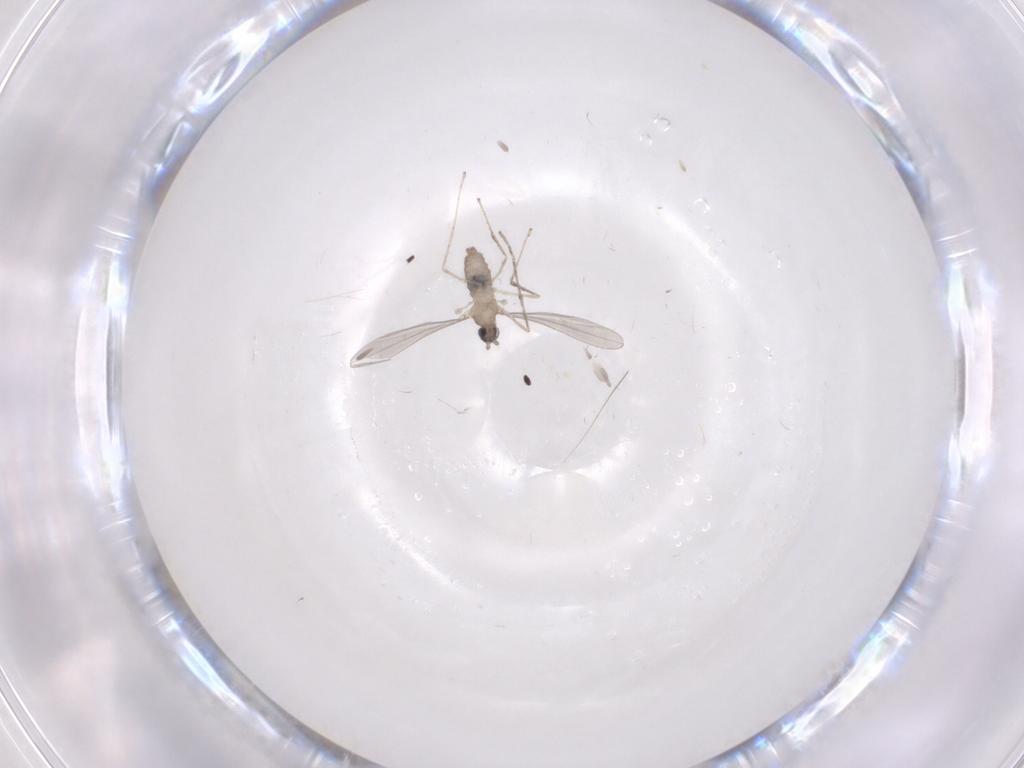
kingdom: Animalia
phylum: Arthropoda
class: Insecta
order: Diptera
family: Cecidomyiidae
